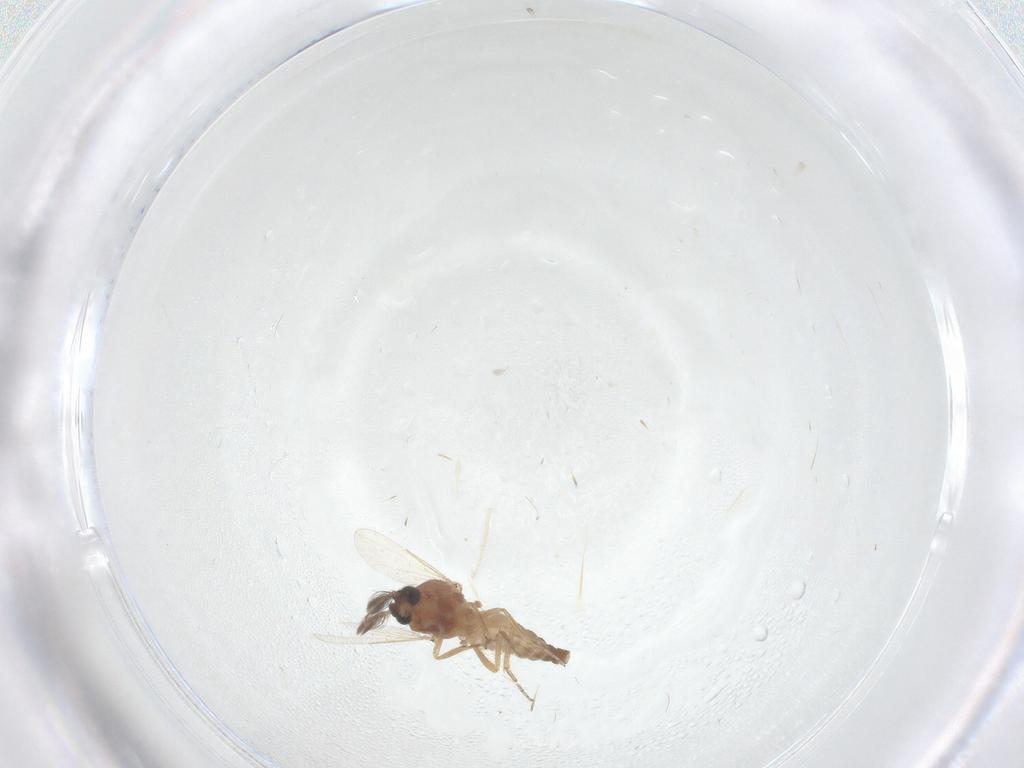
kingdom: Animalia
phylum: Arthropoda
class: Insecta
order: Diptera
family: Ceratopogonidae
